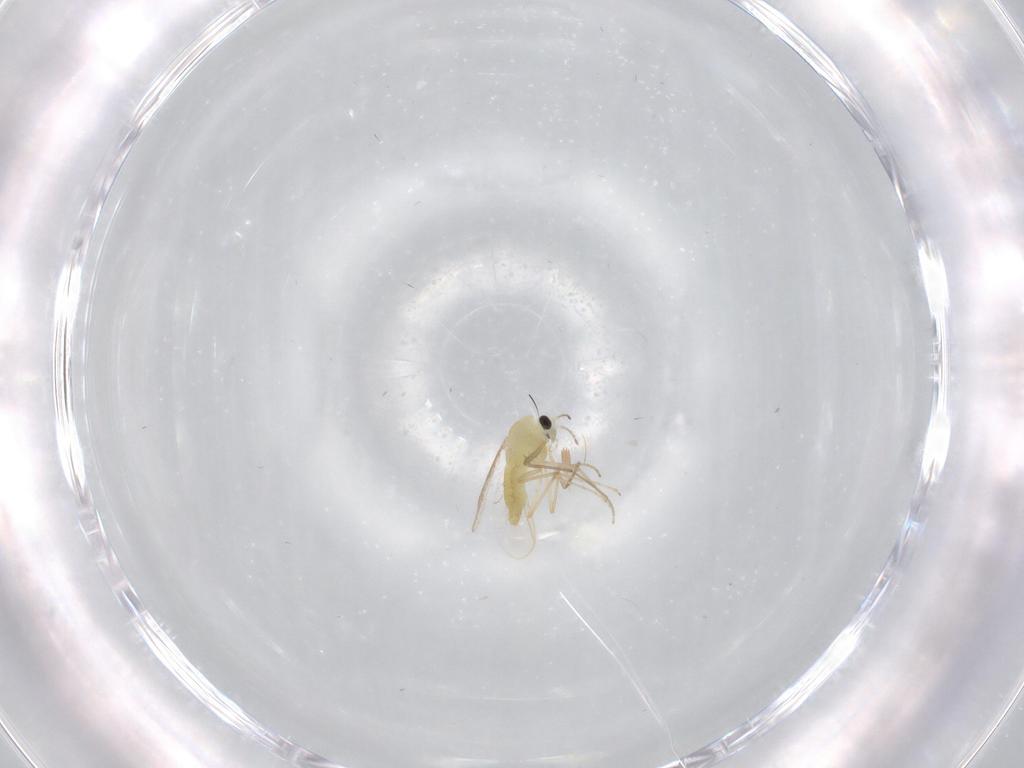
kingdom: Animalia
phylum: Arthropoda
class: Insecta
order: Diptera
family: Chironomidae
